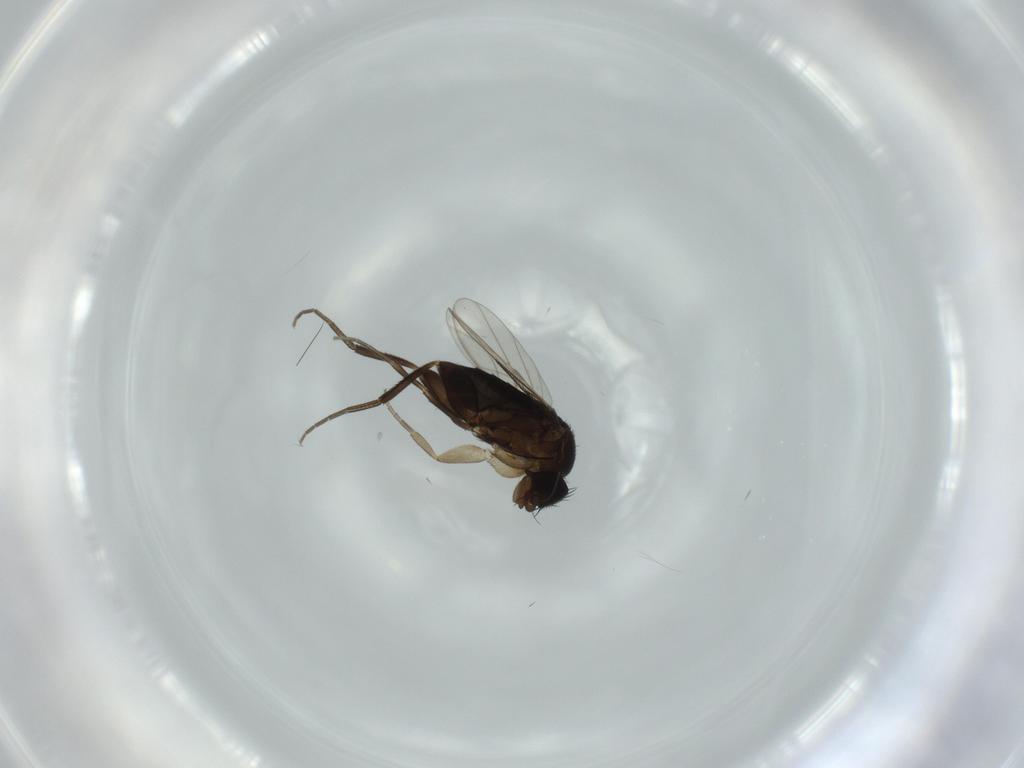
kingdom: Animalia
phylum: Arthropoda
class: Insecta
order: Diptera
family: Phoridae
